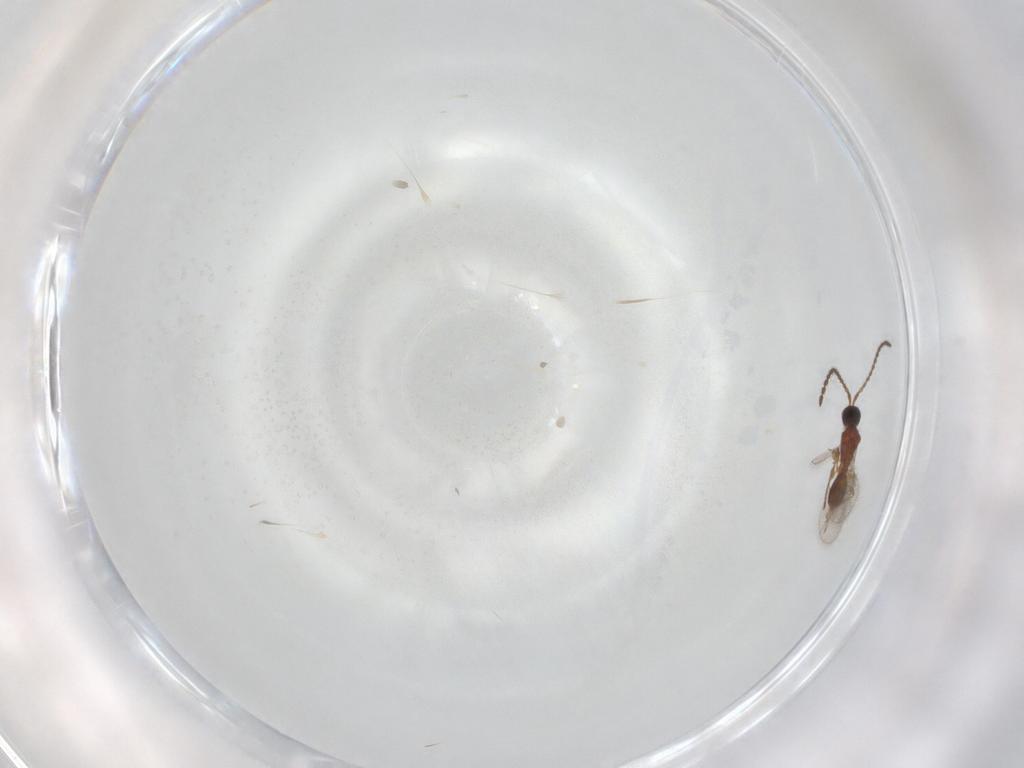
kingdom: Animalia
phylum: Arthropoda
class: Insecta
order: Hymenoptera
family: Diapriidae
